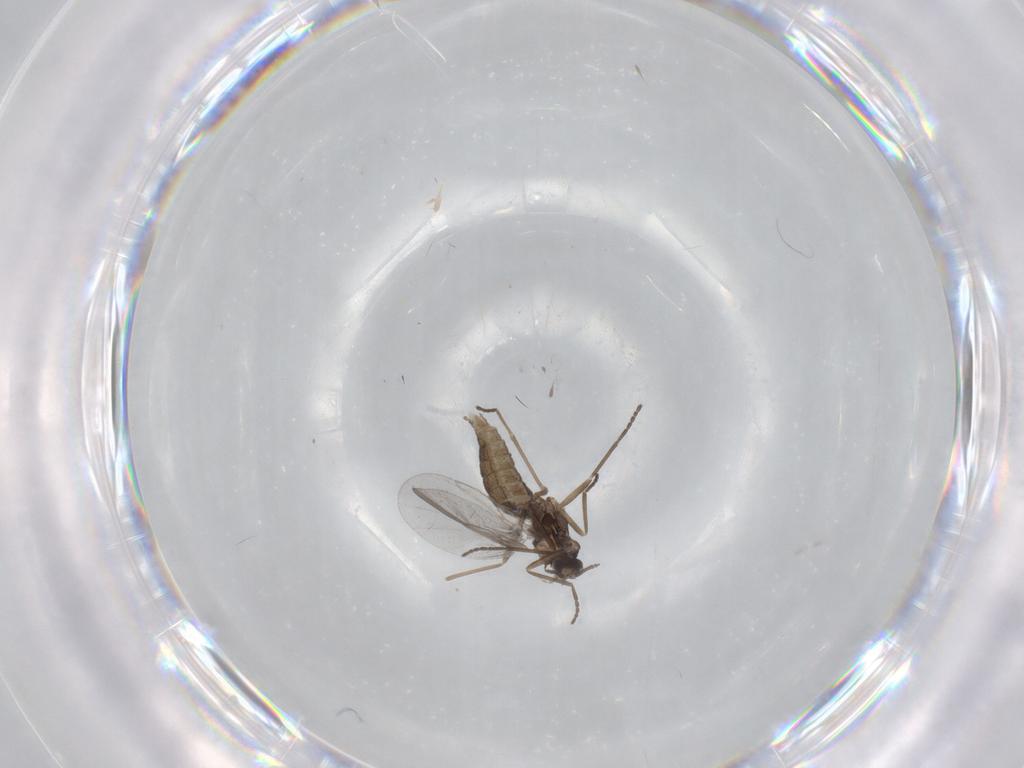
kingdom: Animalia
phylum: Arthropoda
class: Insecta
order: Diptera
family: Cecidomyiidae
